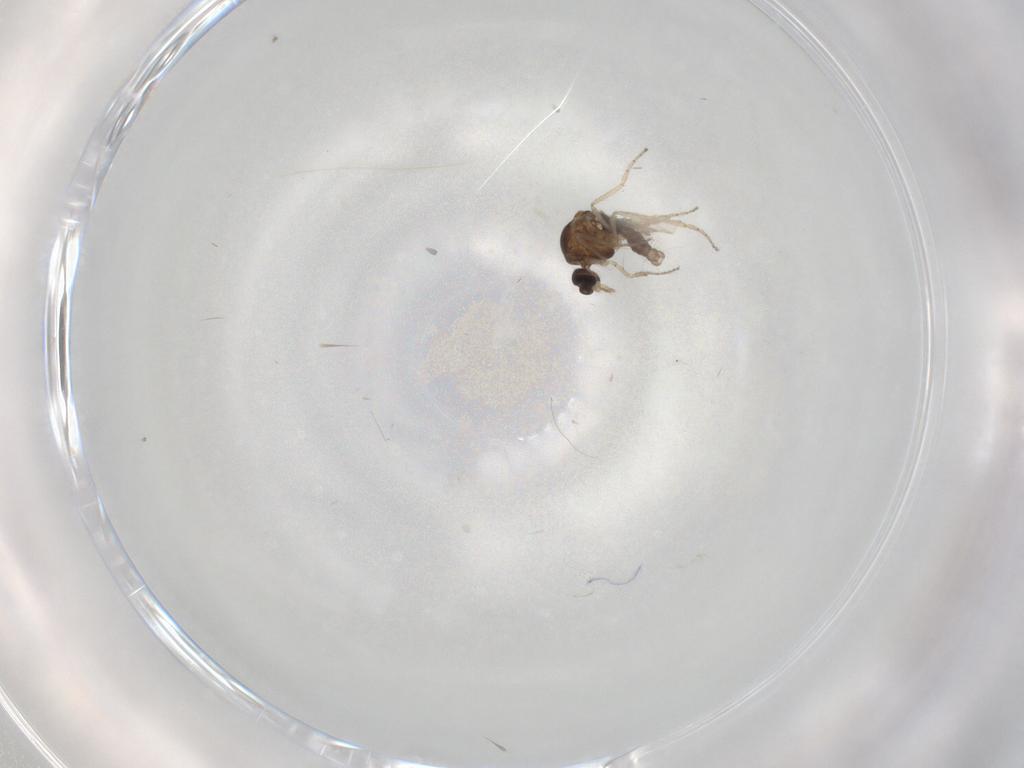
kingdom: Animalia
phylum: Arthropoda
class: Insecta
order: Diptera
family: Ceratopogonidae
